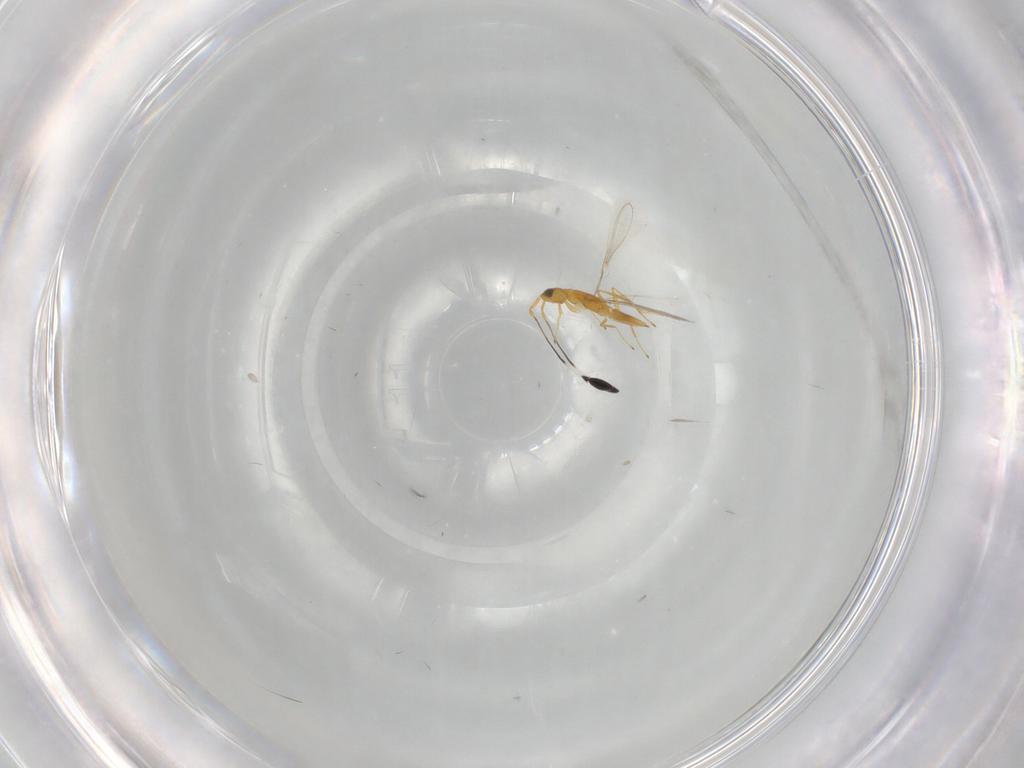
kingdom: Animalia
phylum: Arthropoda
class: Insecta
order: Hymenoptera
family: Mymaridae
